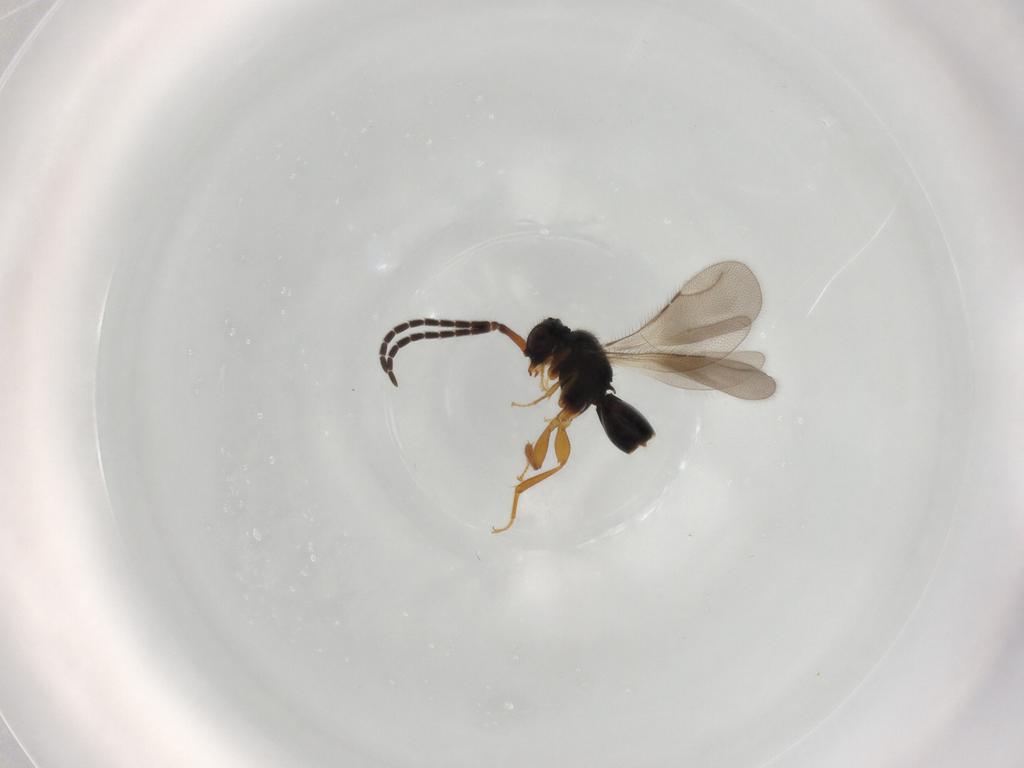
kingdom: Animalia
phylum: Arthropoda
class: Insecta
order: Hymenoptera
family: Ceraphronidae
